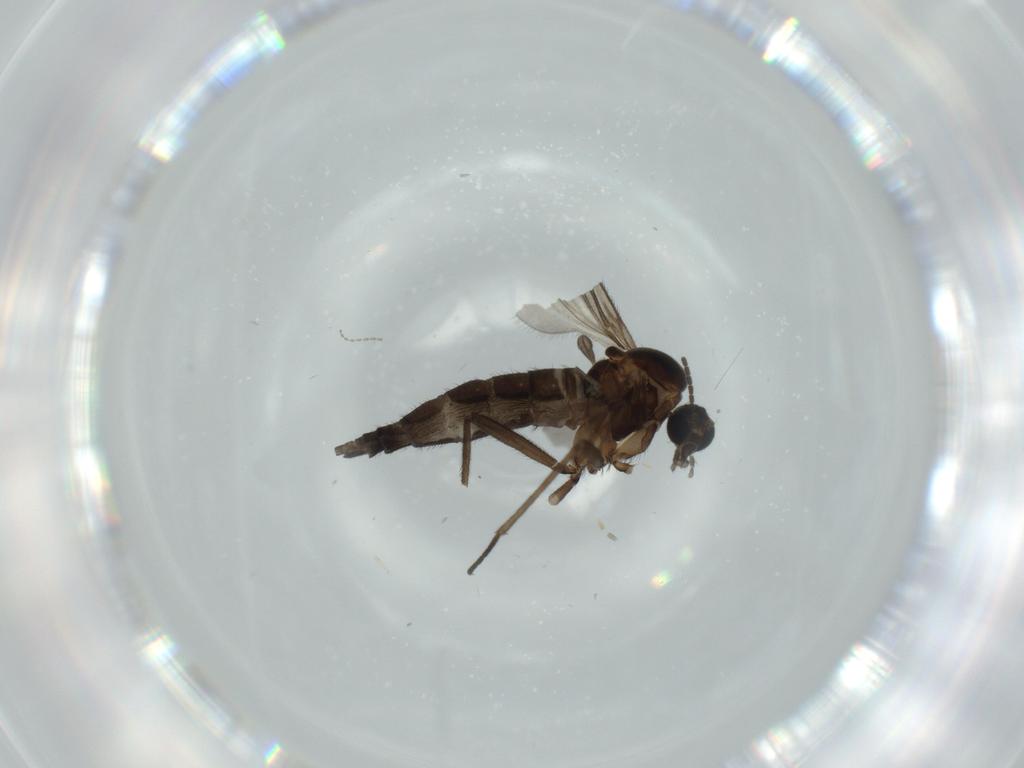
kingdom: Animalia
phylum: Arthropoda
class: Insecta
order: Diptera
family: Sciaridae
